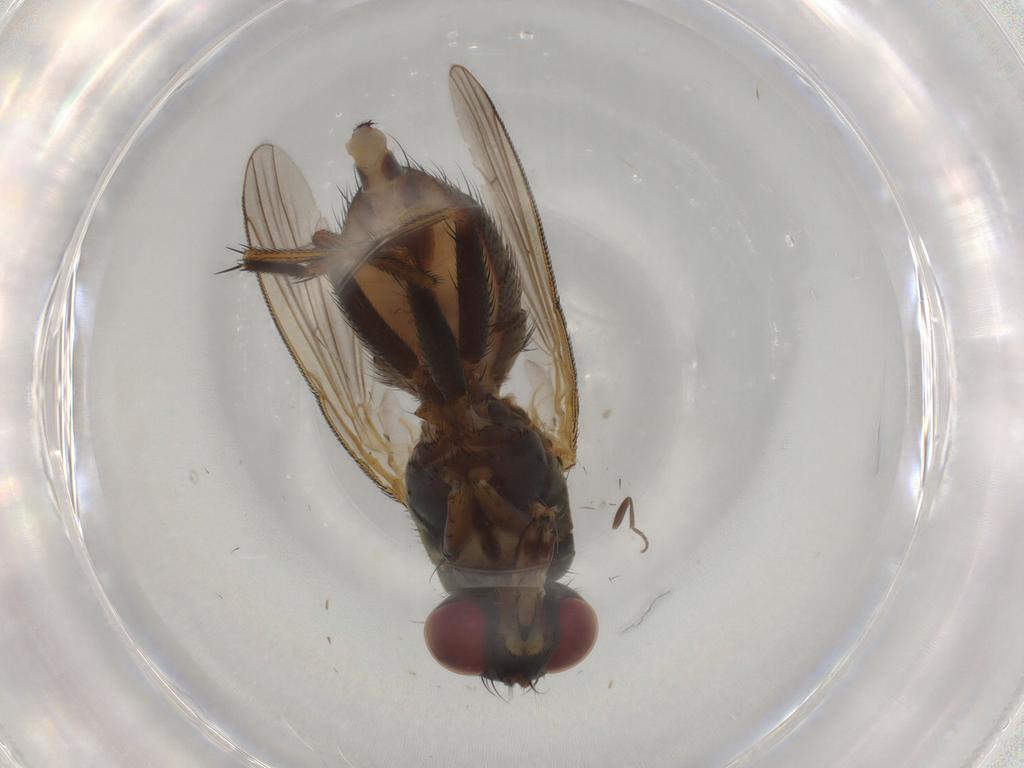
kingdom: Animalia
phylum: Arthropoda
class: Insecta
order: Diptera
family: Muscidae
